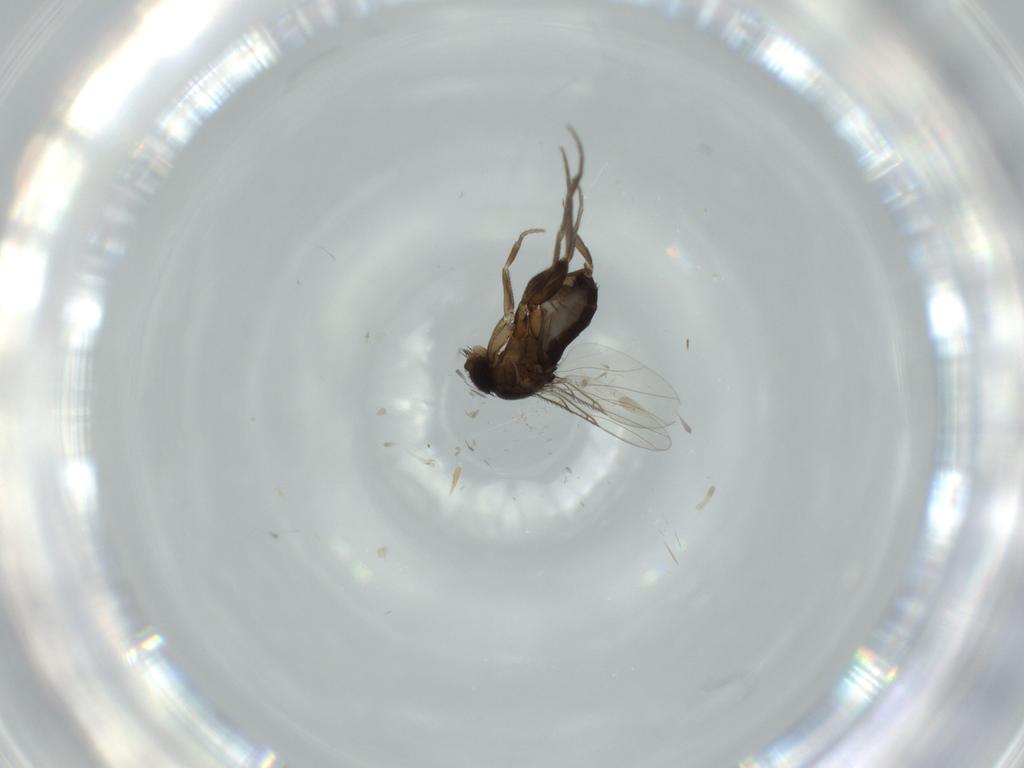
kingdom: Animalia
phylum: Arthropoda
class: Insecta
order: Diptera
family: Phoridae
